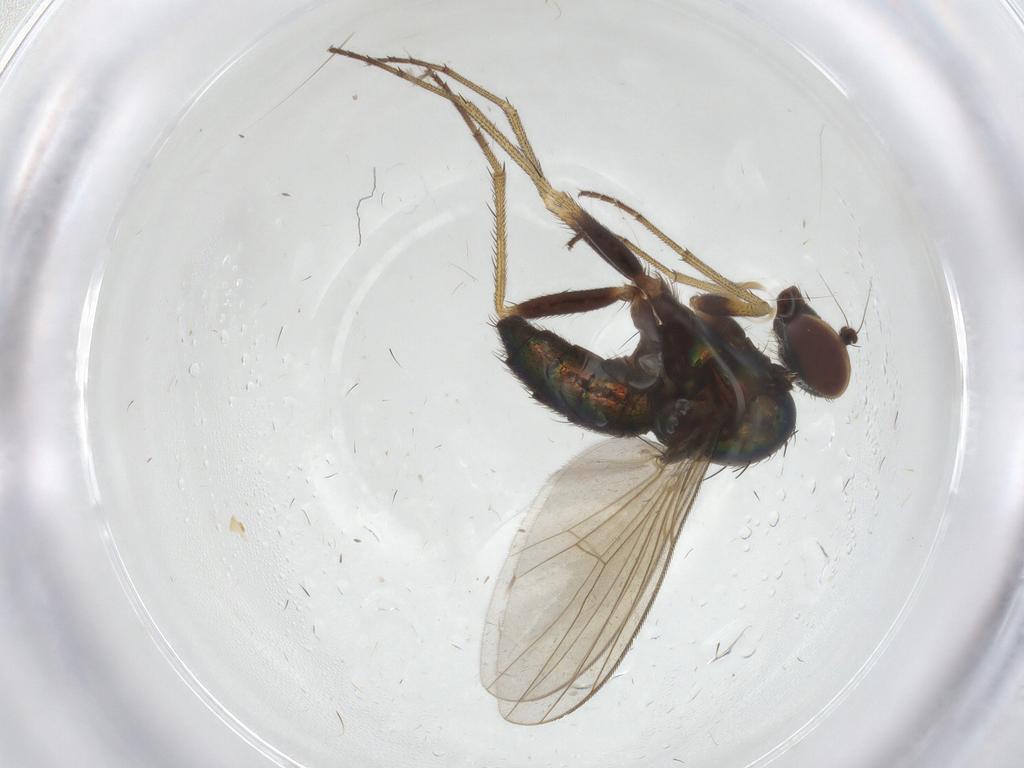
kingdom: Animalia
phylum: Arthropoda
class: Insecta
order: Diptera
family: Dolichopodidae
